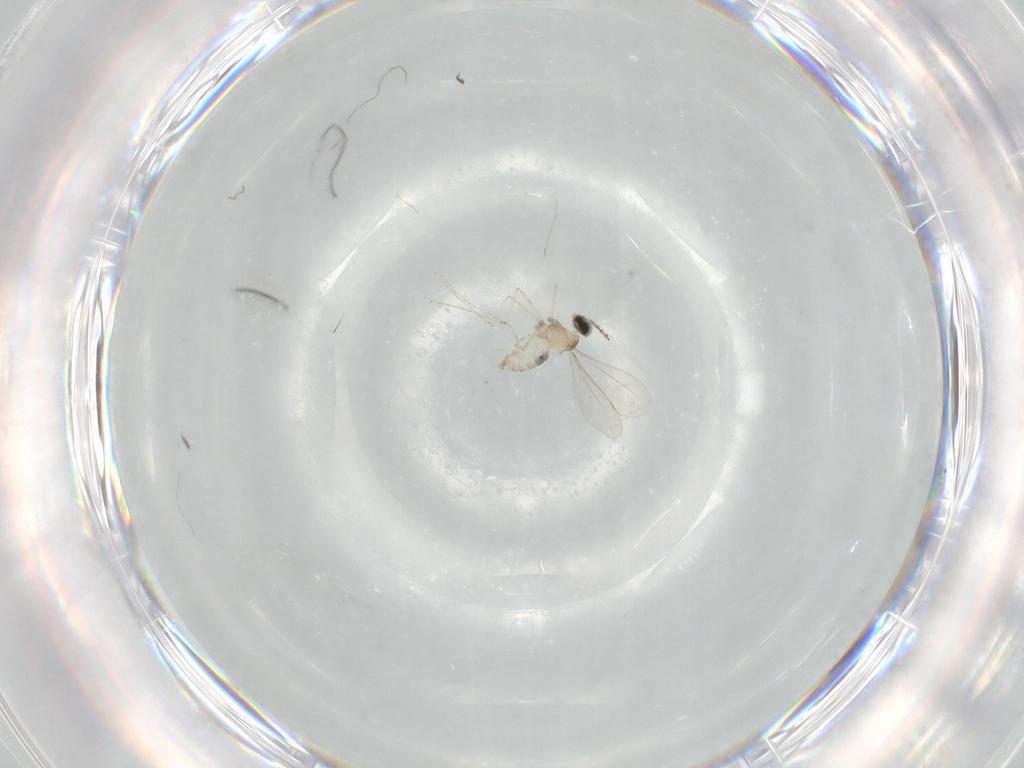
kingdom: Animalia
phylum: Arthropoda
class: Insecta
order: Diptera
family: Cecidomyiidae
